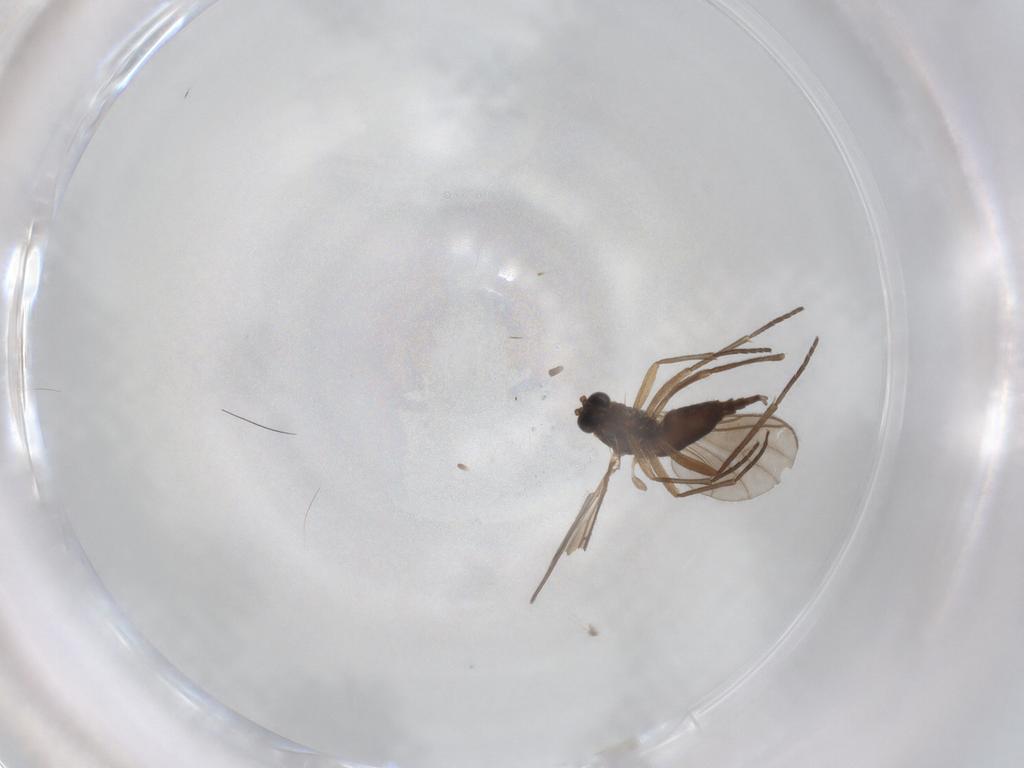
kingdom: Animalia
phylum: Arthropoda
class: Insecta
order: Diptera
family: Sciaridae
